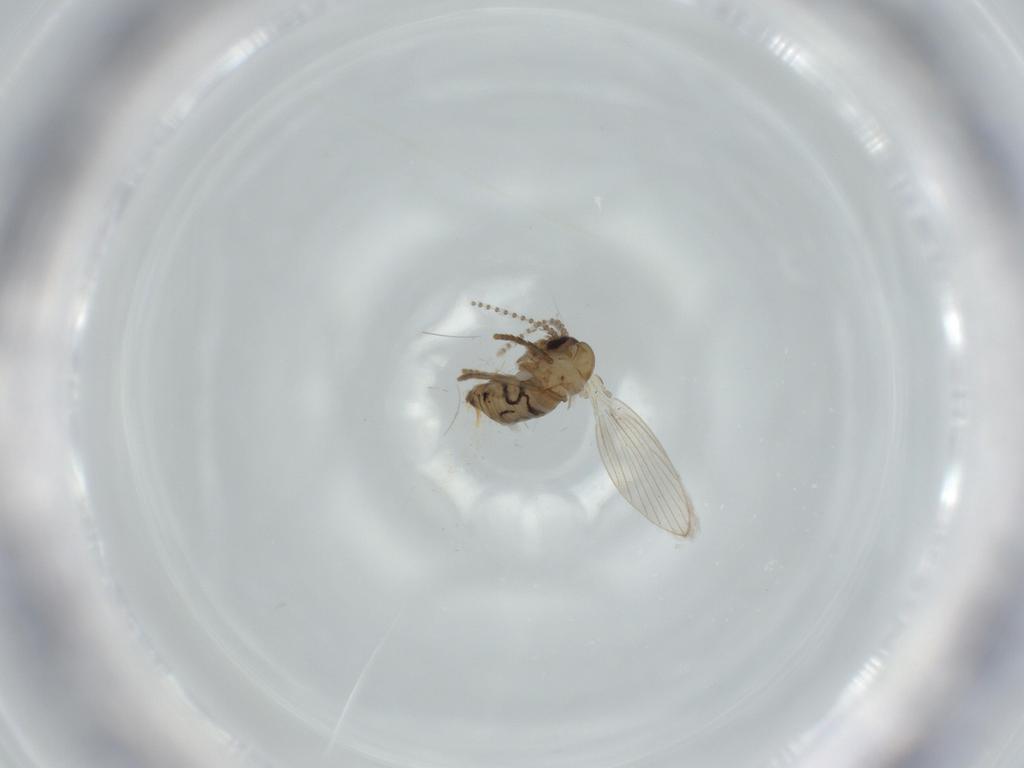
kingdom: Animalia
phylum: Arthropoda
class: Insecta
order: Diptera
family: Psychodidae
